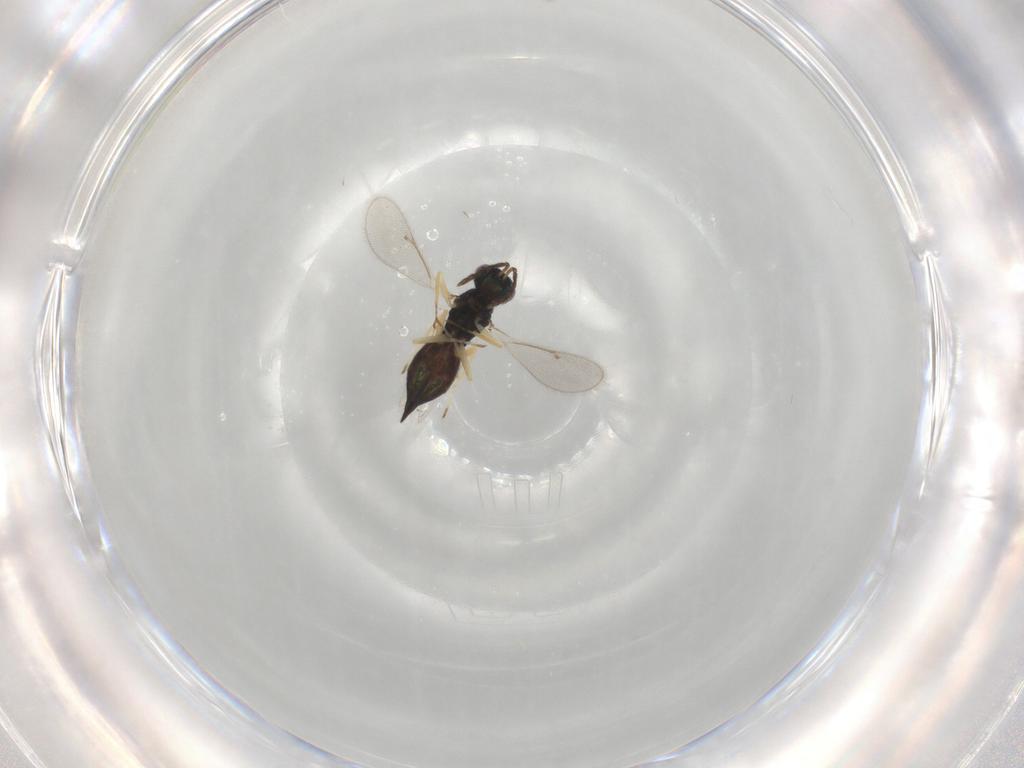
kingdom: Animalia
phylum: Arthropoda
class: Insecta
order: Hymenoptera
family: Eulophidae
